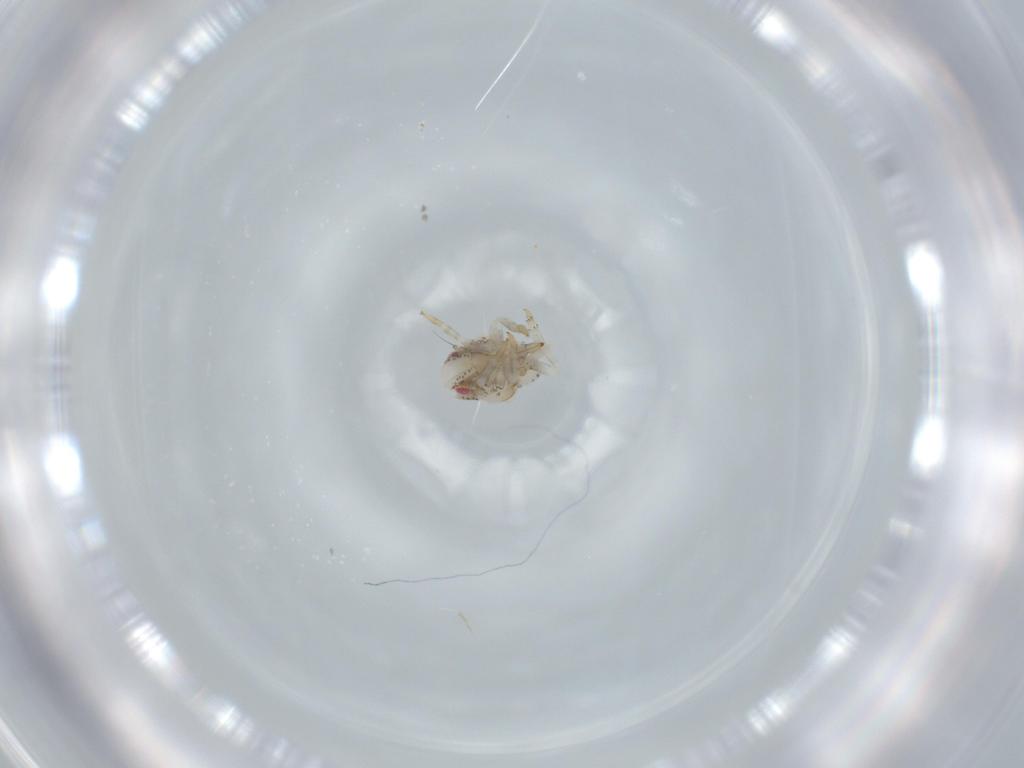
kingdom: Animalia
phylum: Arthropoda
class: Insecta
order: Hemiptera
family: Acanaloniidae
